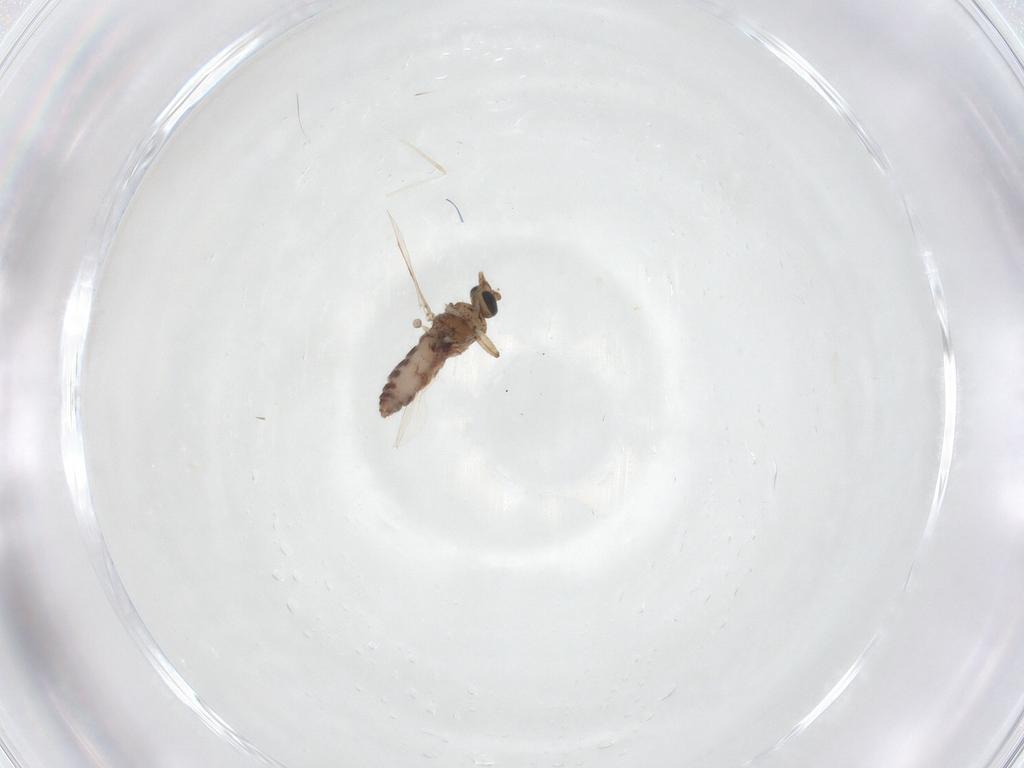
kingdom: Animalia
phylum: Arthropoda
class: Insecta
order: Diptera
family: Ceratopogonidae
